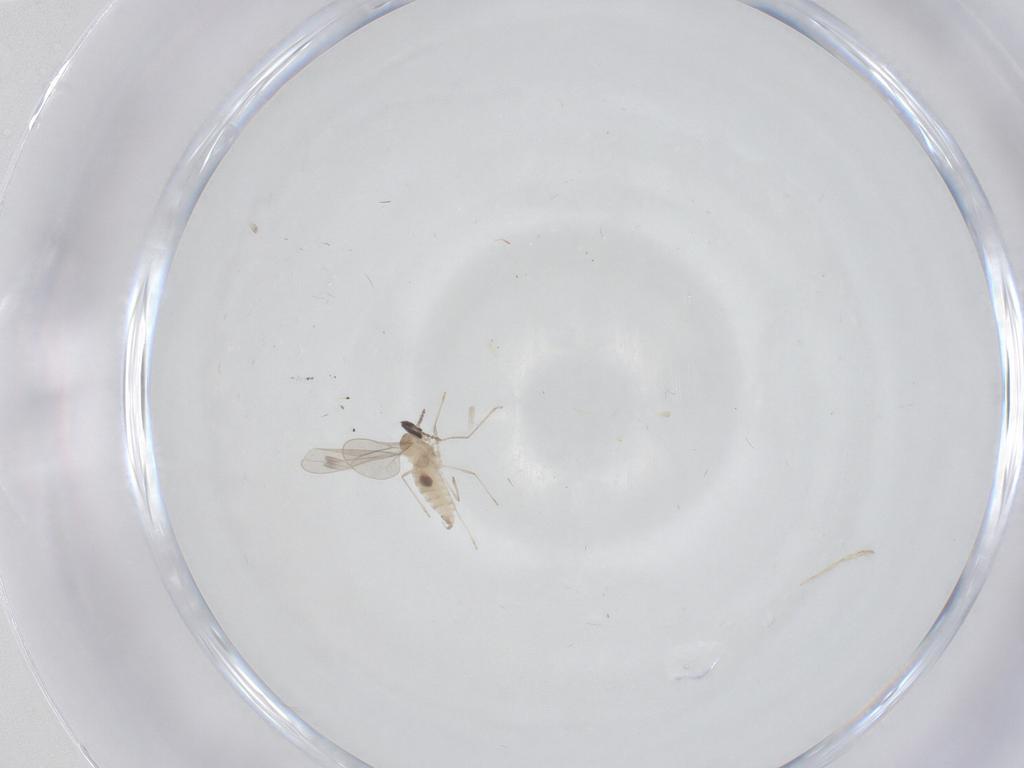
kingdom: Animalia
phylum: Arthropoda
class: Insecta
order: Diptera
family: Cecidomyiidae
